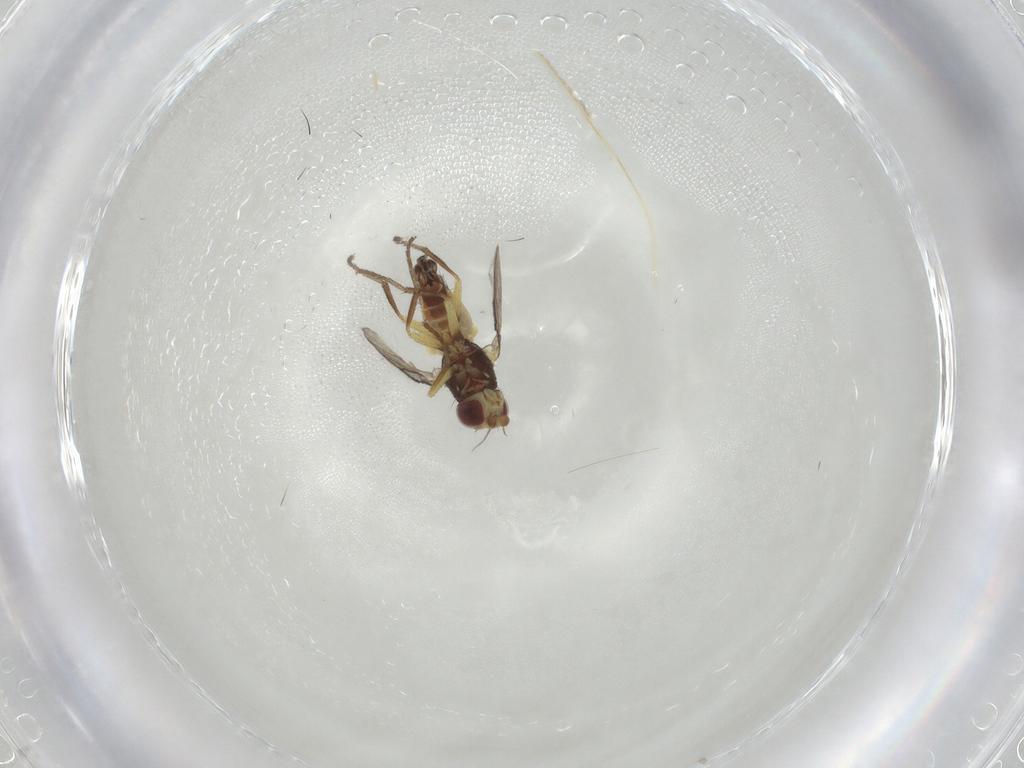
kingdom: Animalia
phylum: Arthropoda
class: Insecta
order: Diptera
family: Agromyzidae
